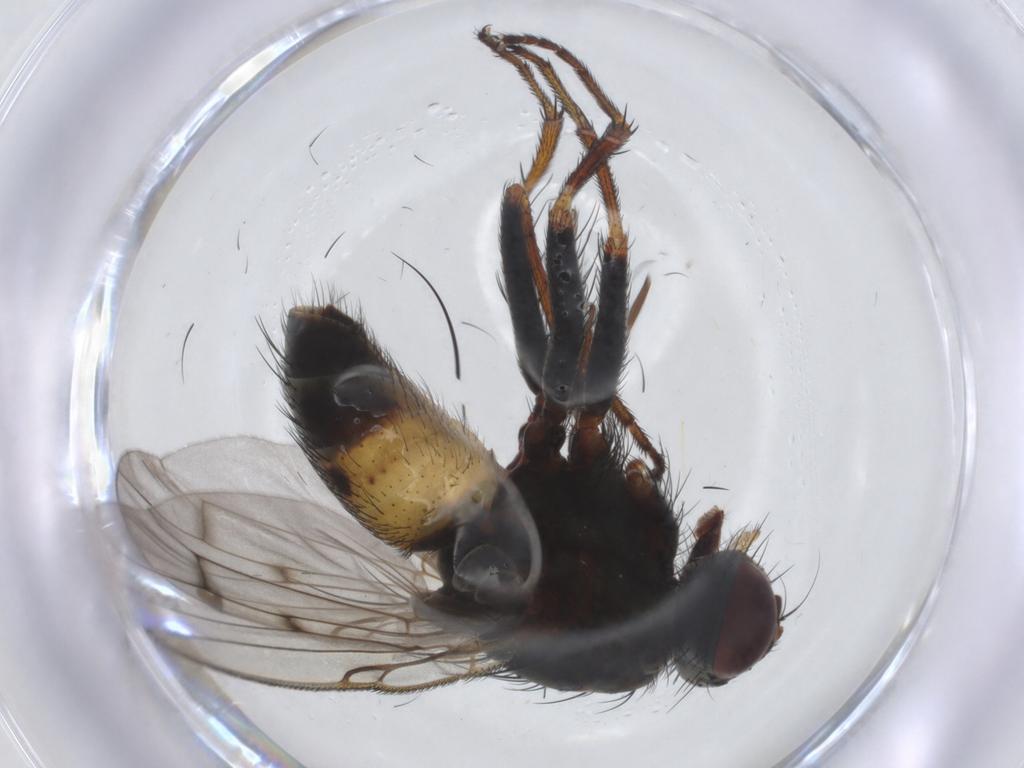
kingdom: Animalia
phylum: Arthropoda
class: Insecta
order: Diptera
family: Muscidae
